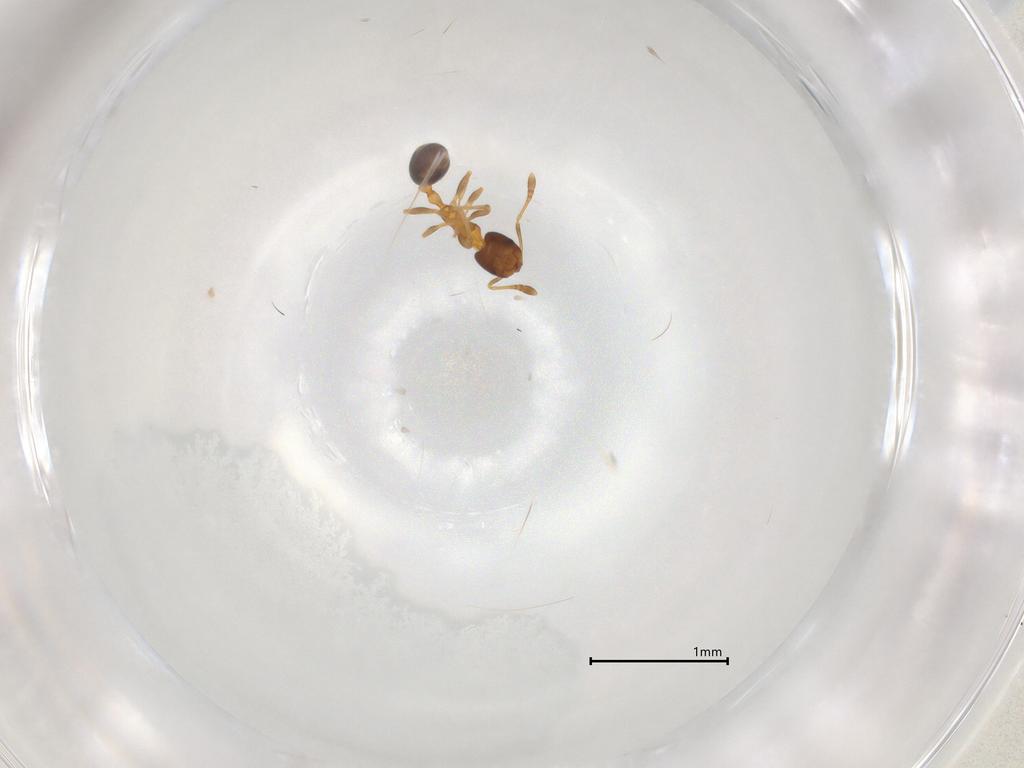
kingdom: Animalia
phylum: Arthropoda
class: Insecta
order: Hymenoptera
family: Formicidae
